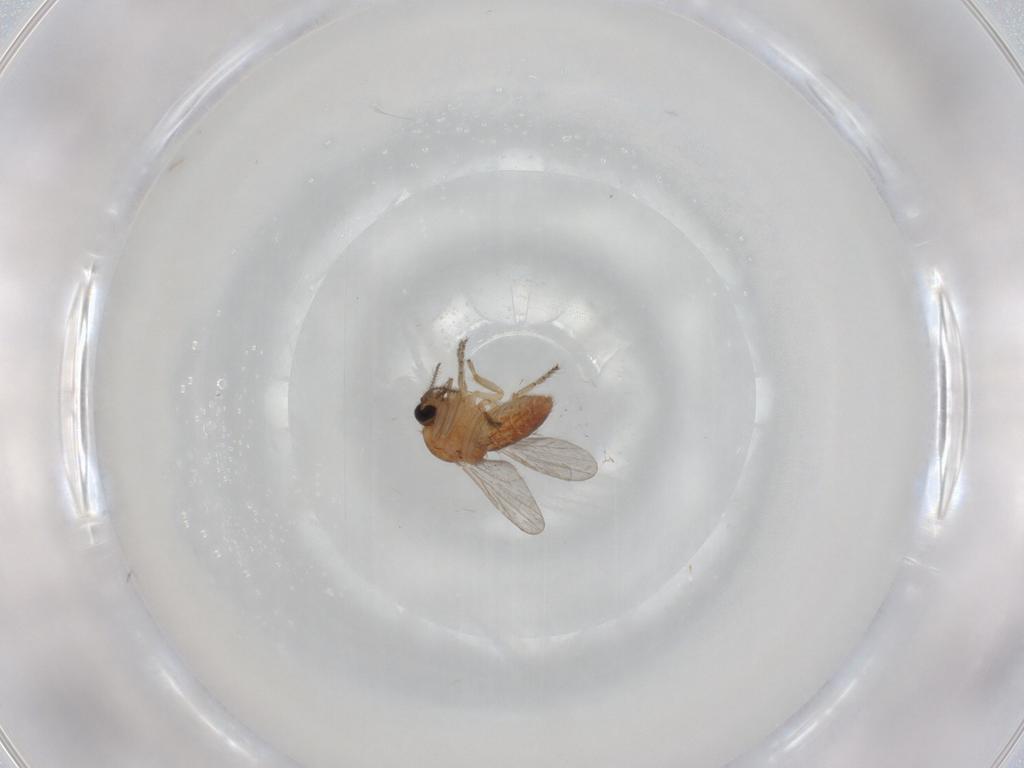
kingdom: Animalia
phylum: Arthropoda
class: Insecta
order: Diptera
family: Ceratopogonidae
